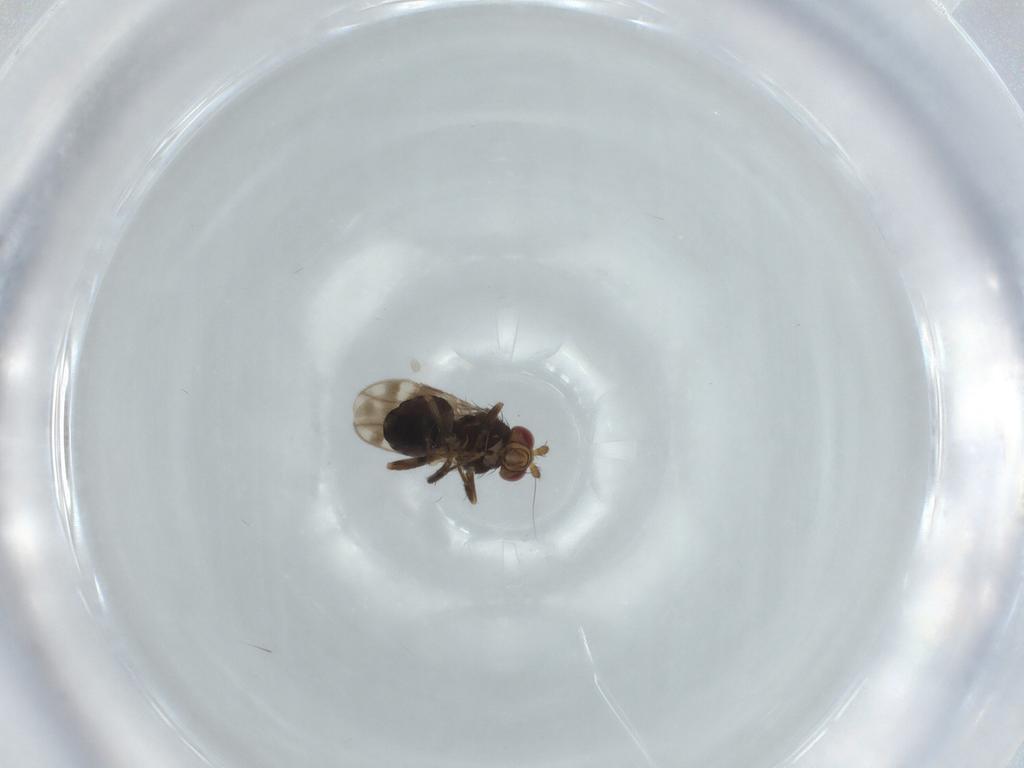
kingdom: Animalia
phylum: Arthropoda
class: Insecta
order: Diptera
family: Sphaeroceridae
